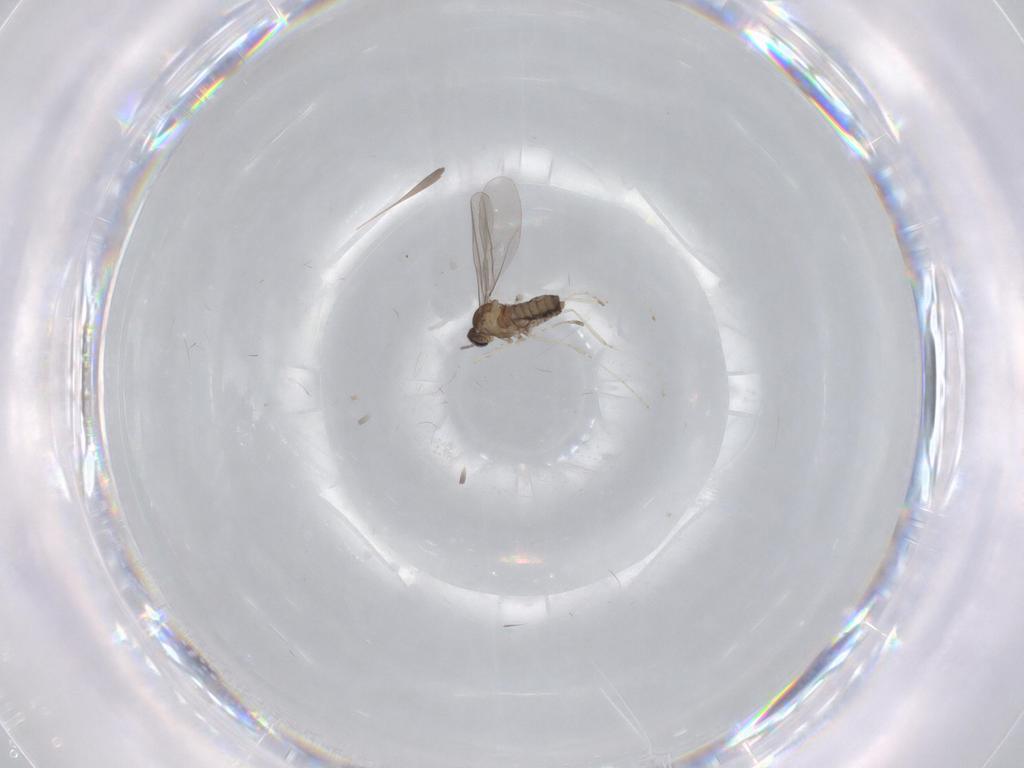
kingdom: Animalia
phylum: Arthropoda
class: Insecta
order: Diptera
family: Cecidomyiidae
